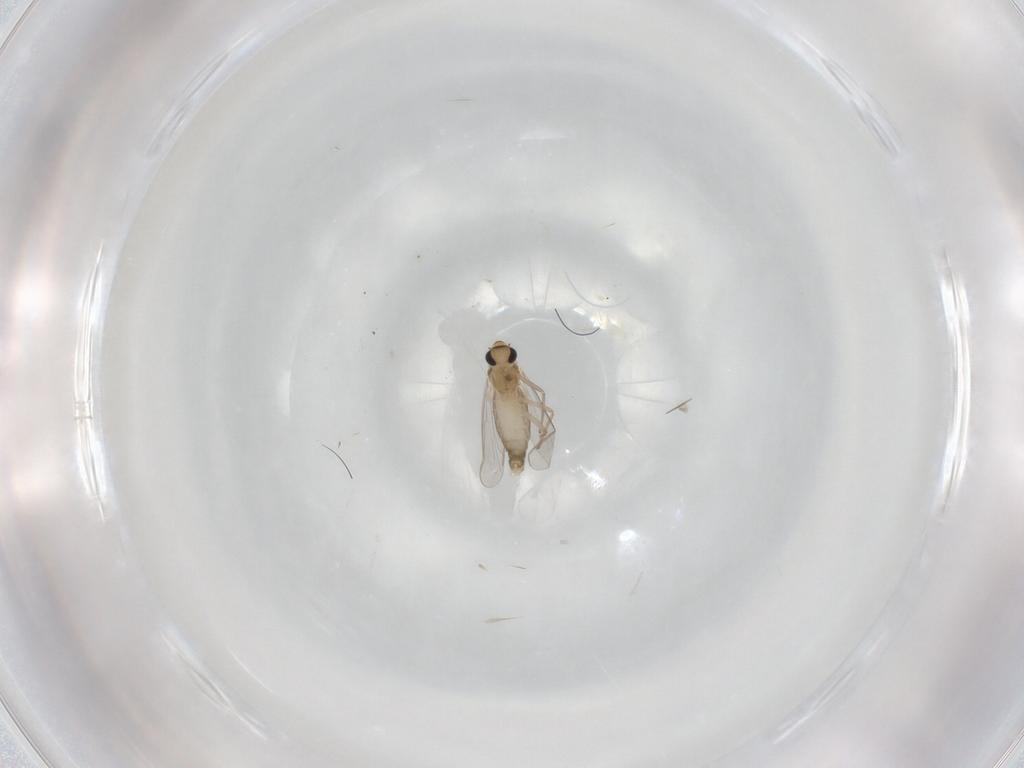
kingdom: Animalia
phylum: Arthropoda
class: Insecta
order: Diptera
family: Chironomidae
